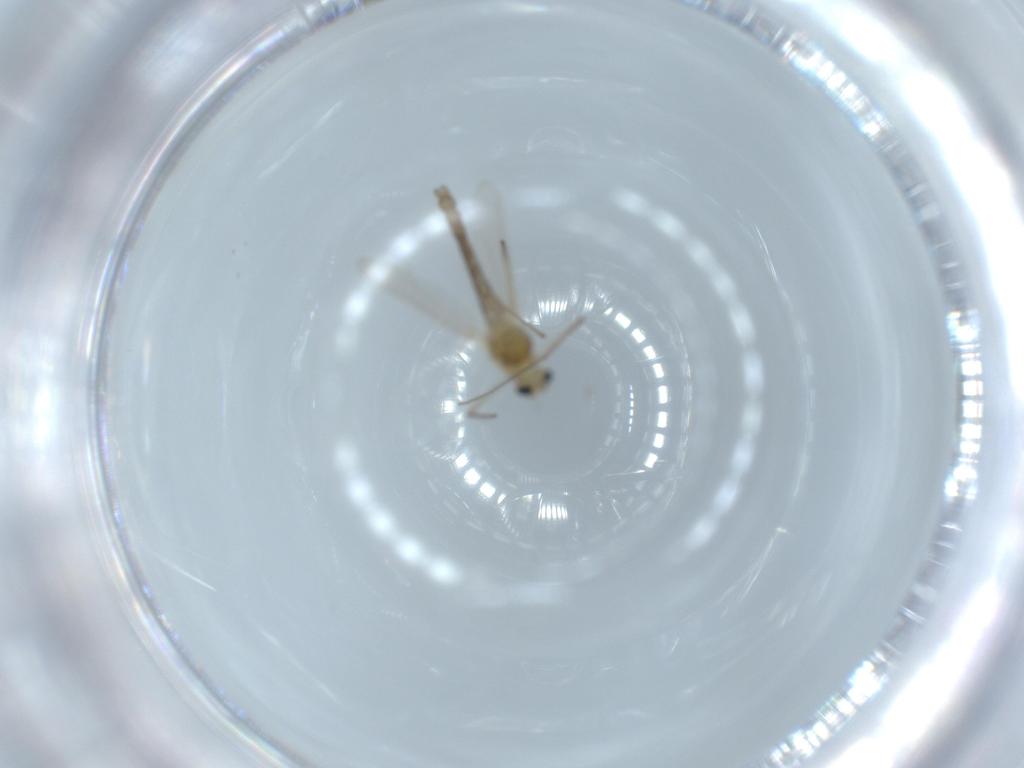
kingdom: Animalia
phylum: Arthropoda
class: Insecta
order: Diptera
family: Chironomidae
